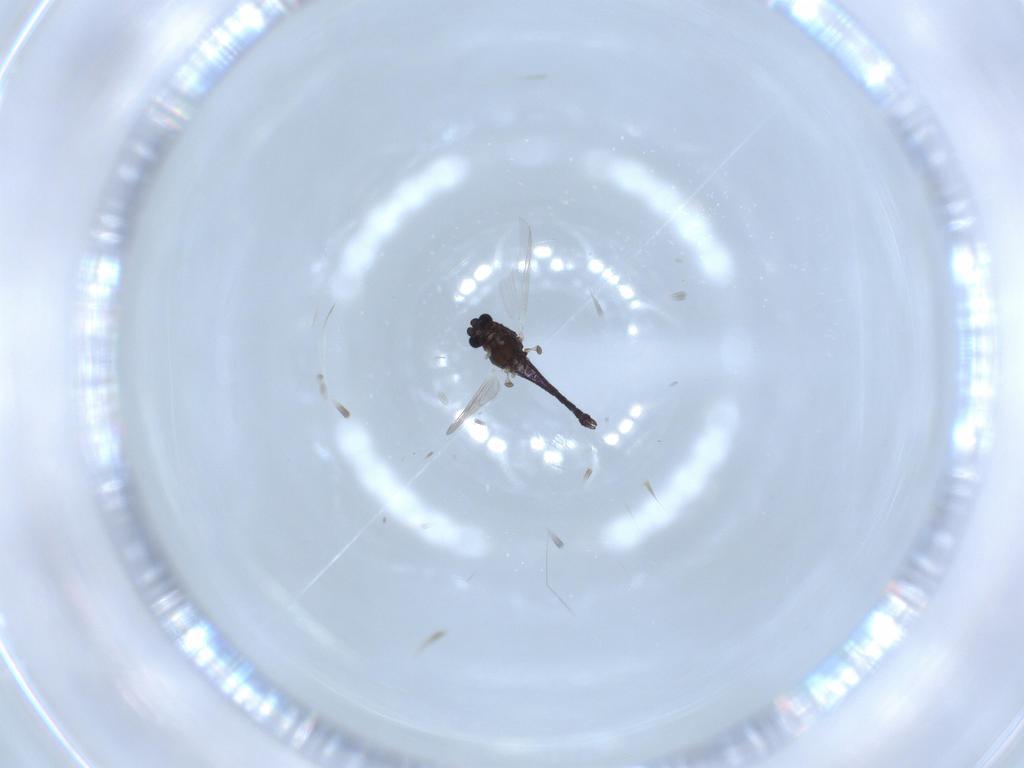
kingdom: Animalia
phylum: Arthropoda
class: Insecta
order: Diptera
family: Chironomidae
